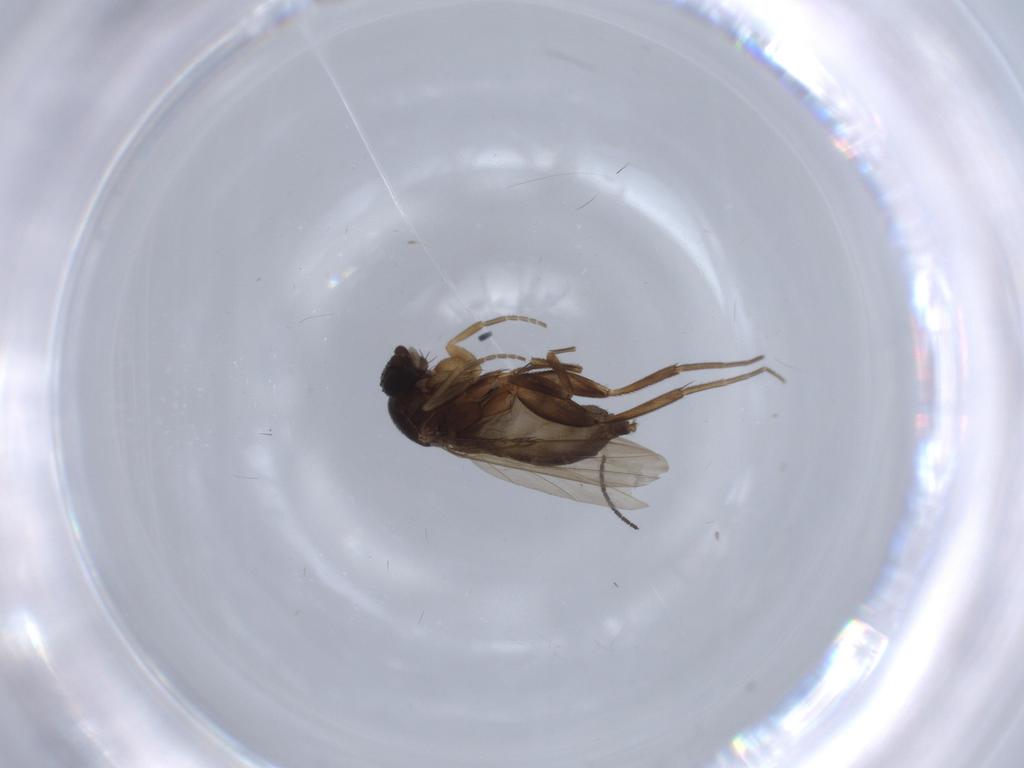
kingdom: Animalia
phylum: Arthropoda
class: Insecta
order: Diptera
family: Phoridae
